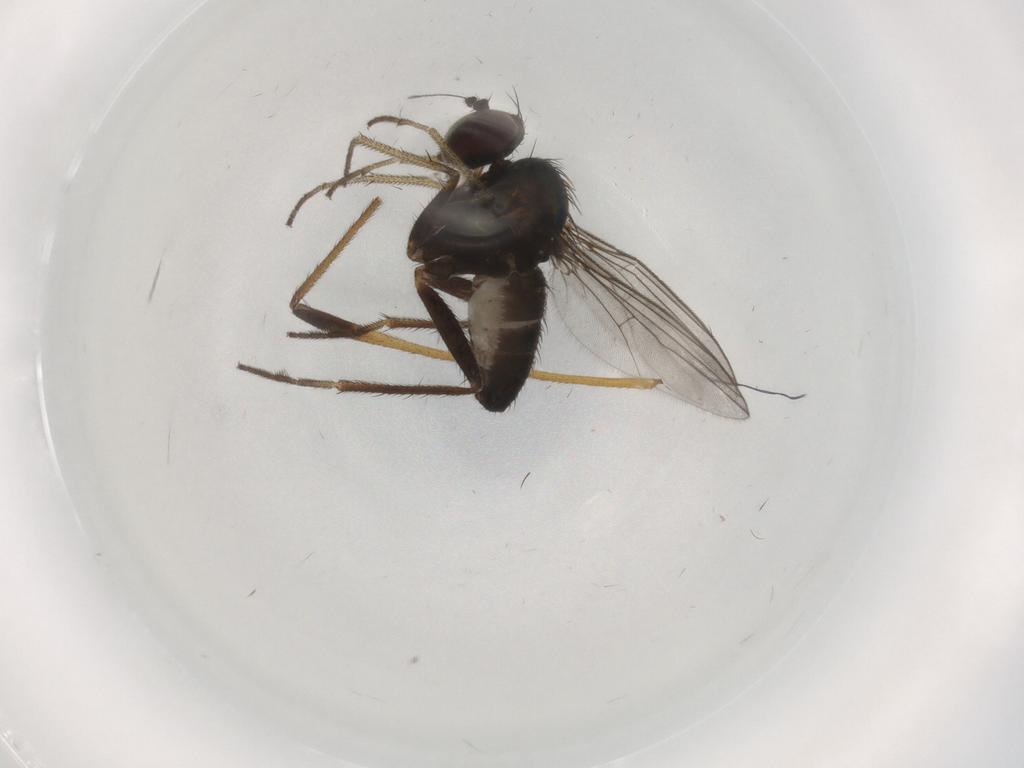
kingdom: Animalia
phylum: Arthropoda
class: Insecta
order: Diptera
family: Limoniidae
